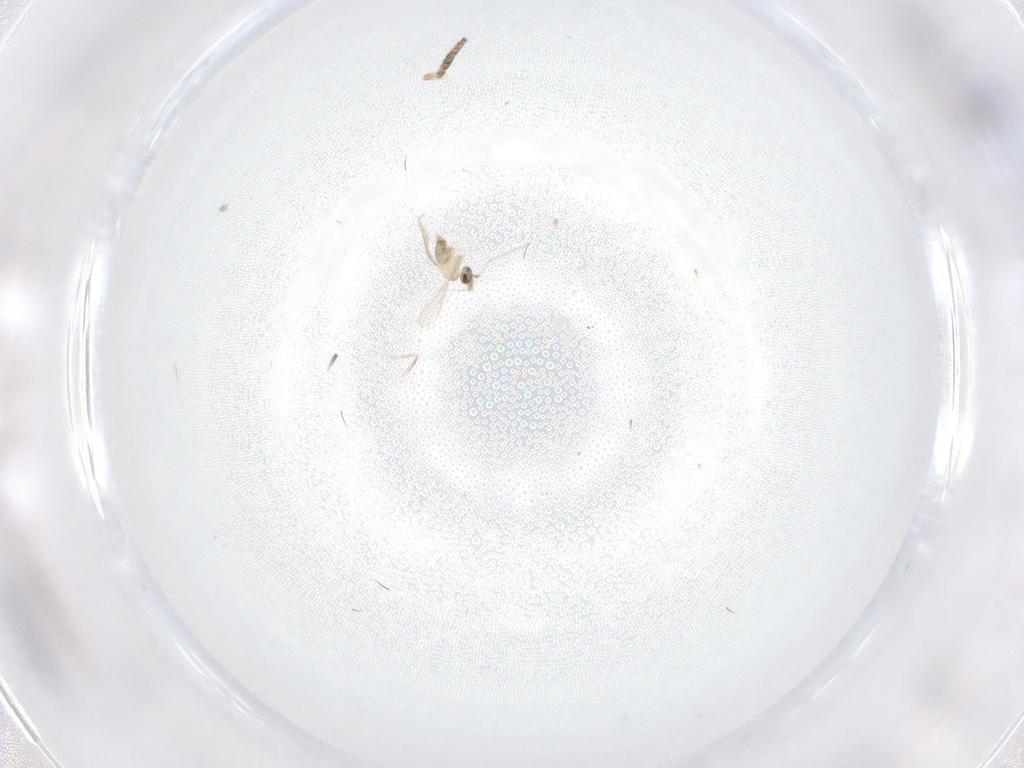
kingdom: Animalia
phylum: Arthropoda
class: Insecta
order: Diptera
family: Cecidomyiidae
